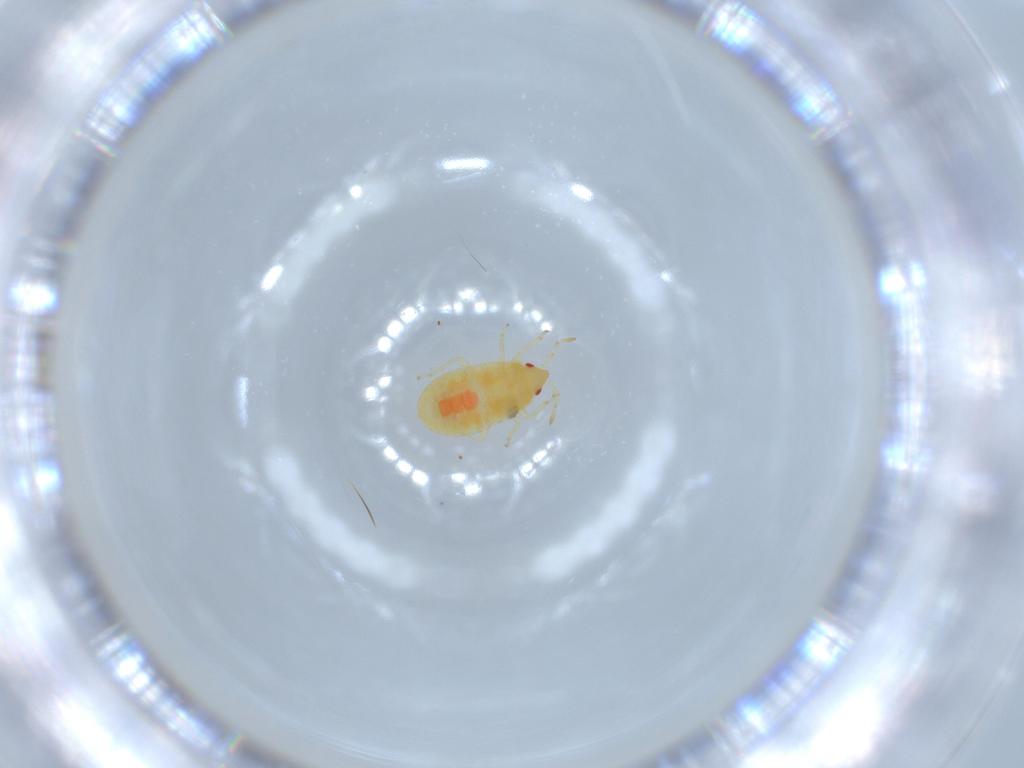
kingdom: Animalia
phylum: Arthropoda
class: Insecta
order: Hemiptera
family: Anthocoridae
